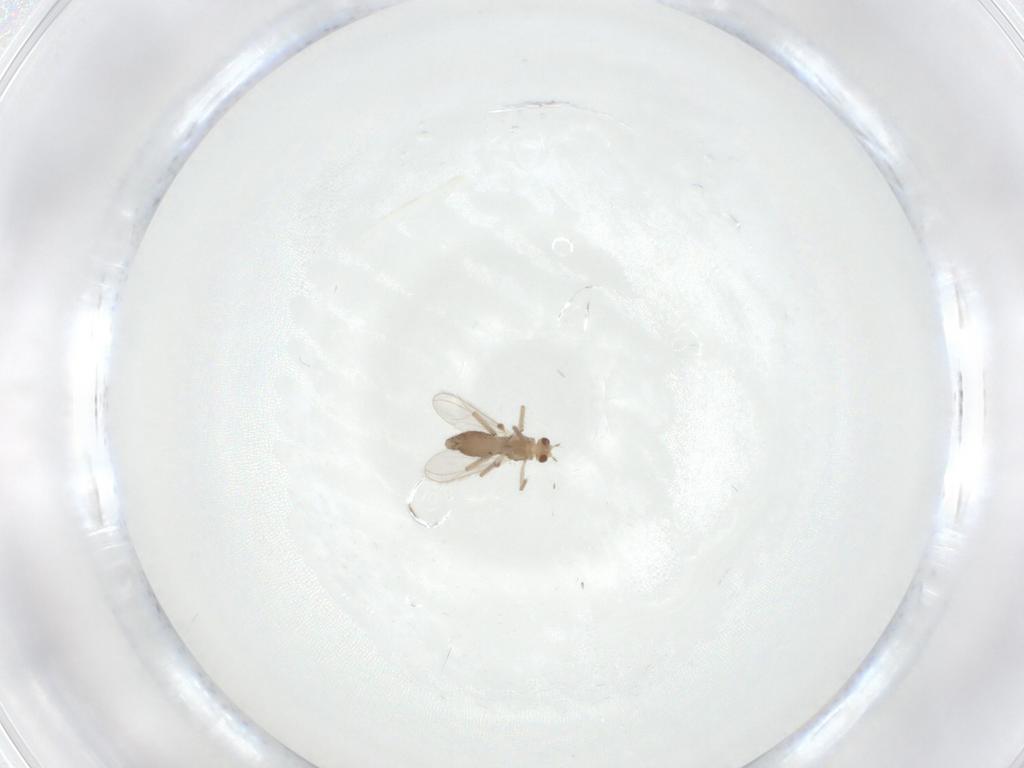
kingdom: Animalia
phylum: Arthropoda
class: Insecta
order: Diptera
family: Chironomidae
